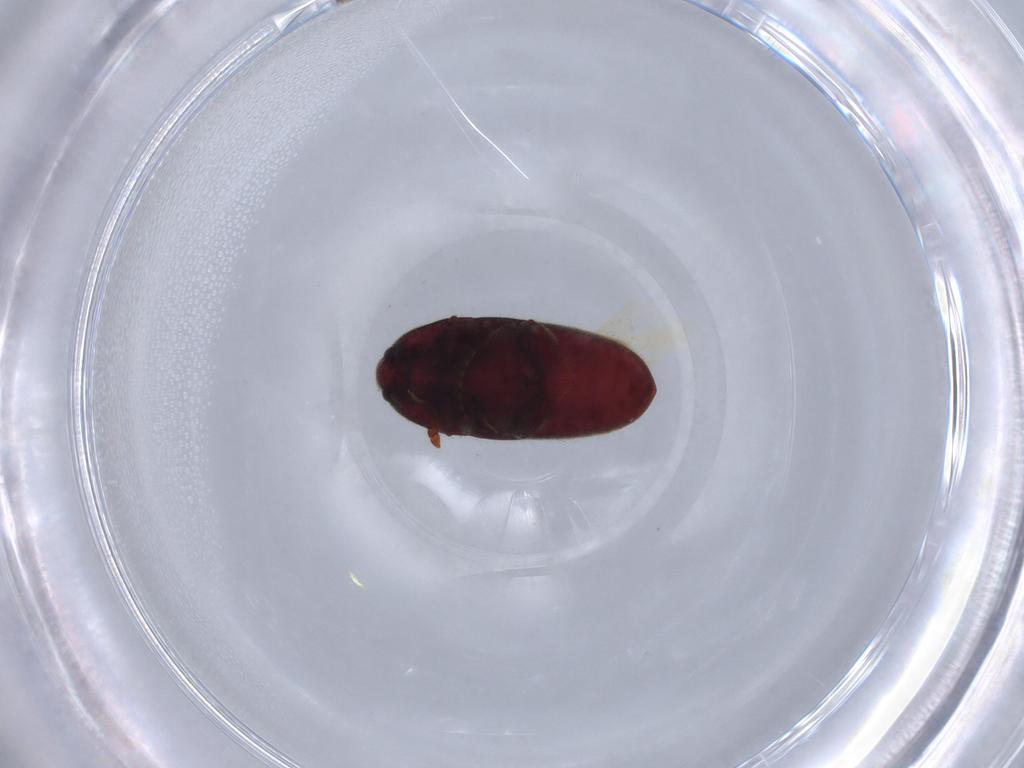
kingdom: Animalia
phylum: Arthropoda
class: Insecta
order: Coleoptera
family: Throscidae
